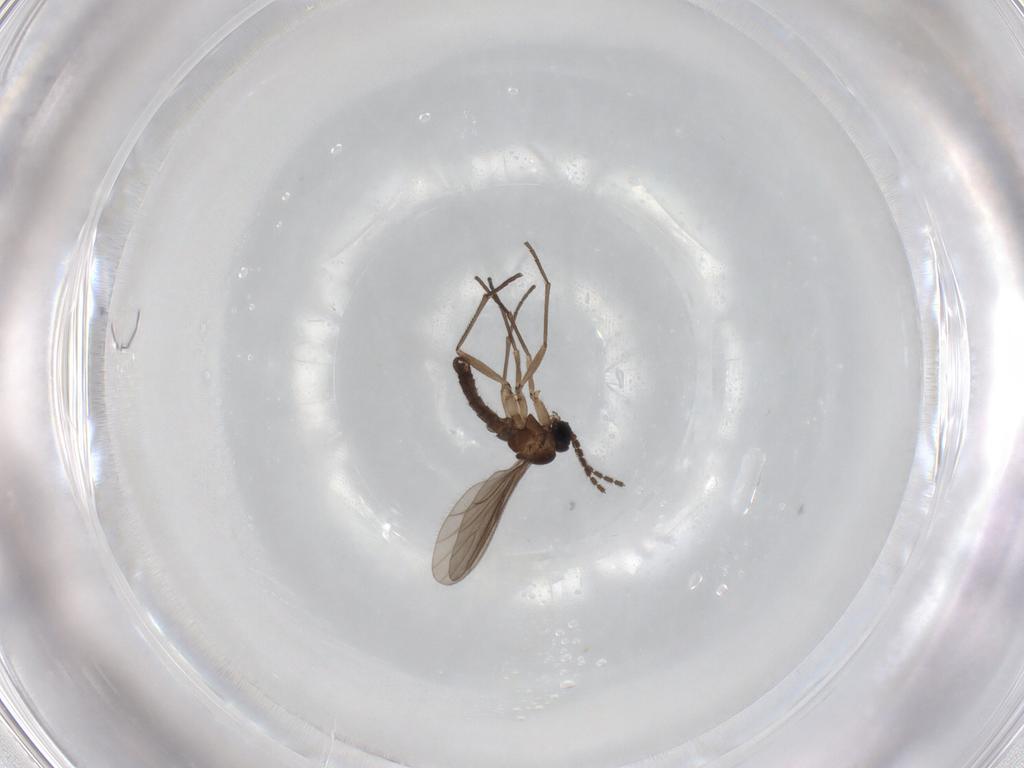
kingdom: Animalia
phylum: Arthropoda
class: Insecta
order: Diptera
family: Sciaridae
